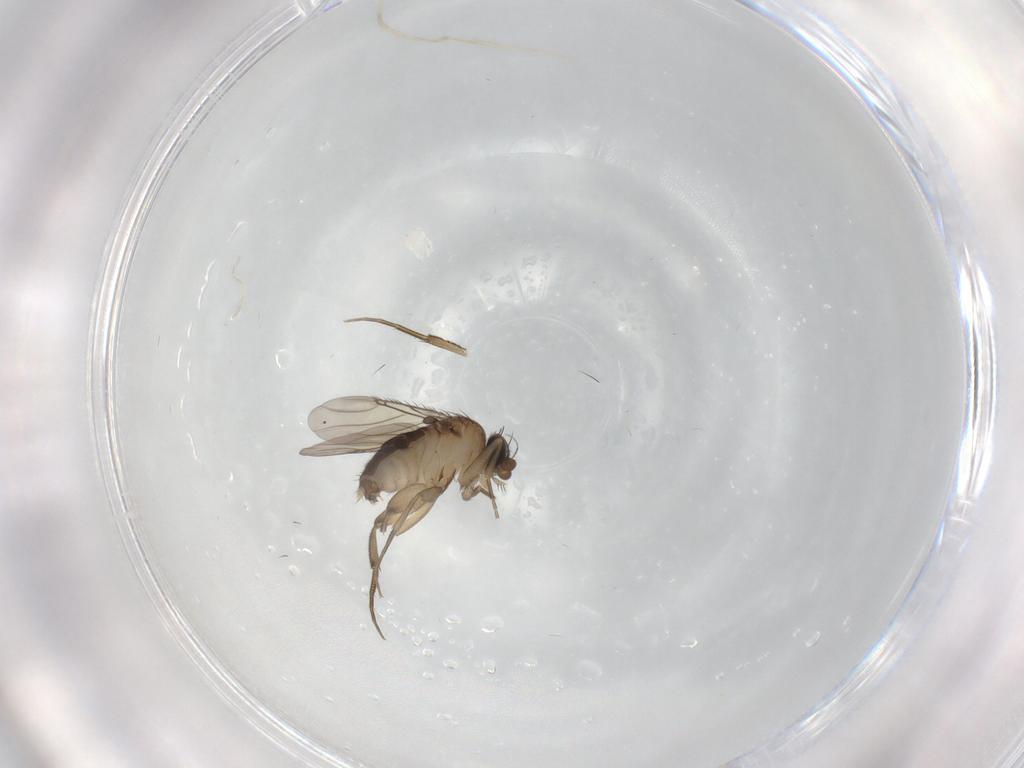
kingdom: Animalia
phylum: Arthropoda
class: Insecta
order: Diptera
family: Phoridae
